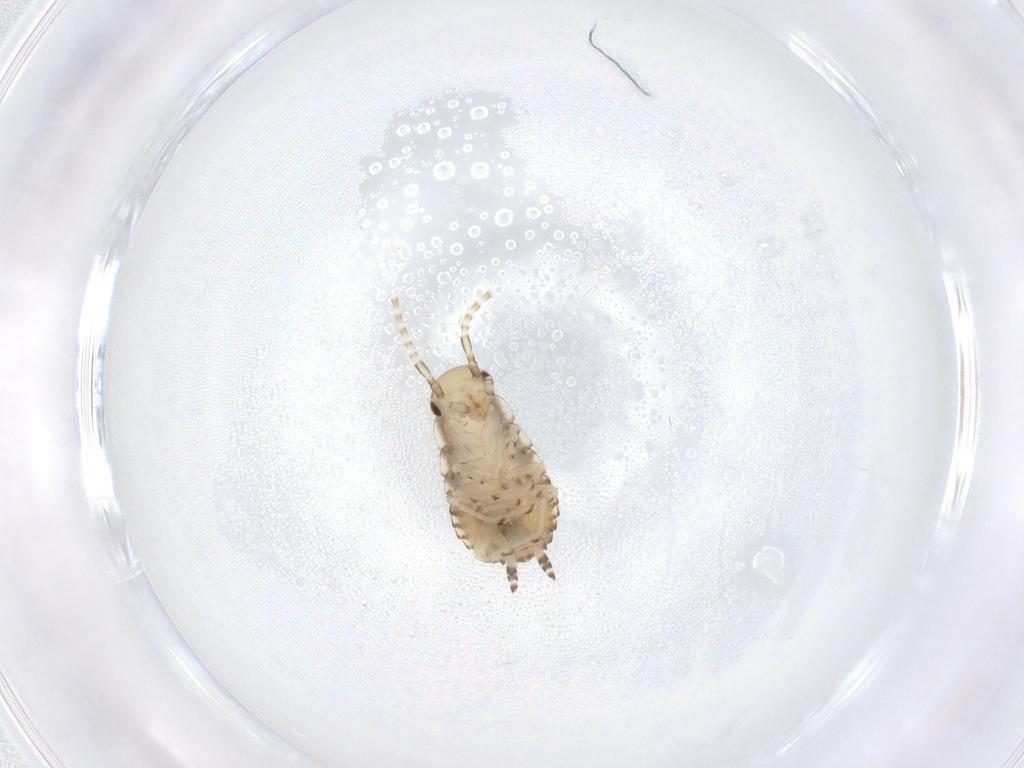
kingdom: Animalia
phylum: Arthropoda
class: Insecta
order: Blattodea
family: Ectobiidae
